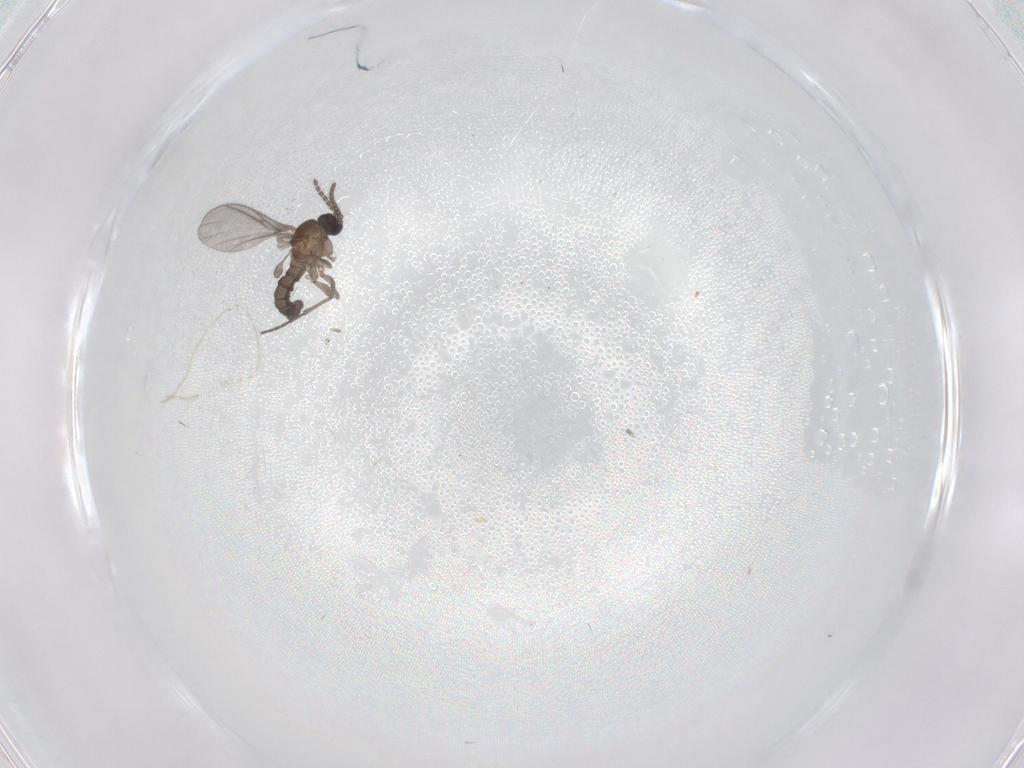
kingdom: Animalia
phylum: Arthropoda
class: Insecta
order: Diptera
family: Sciaridae
